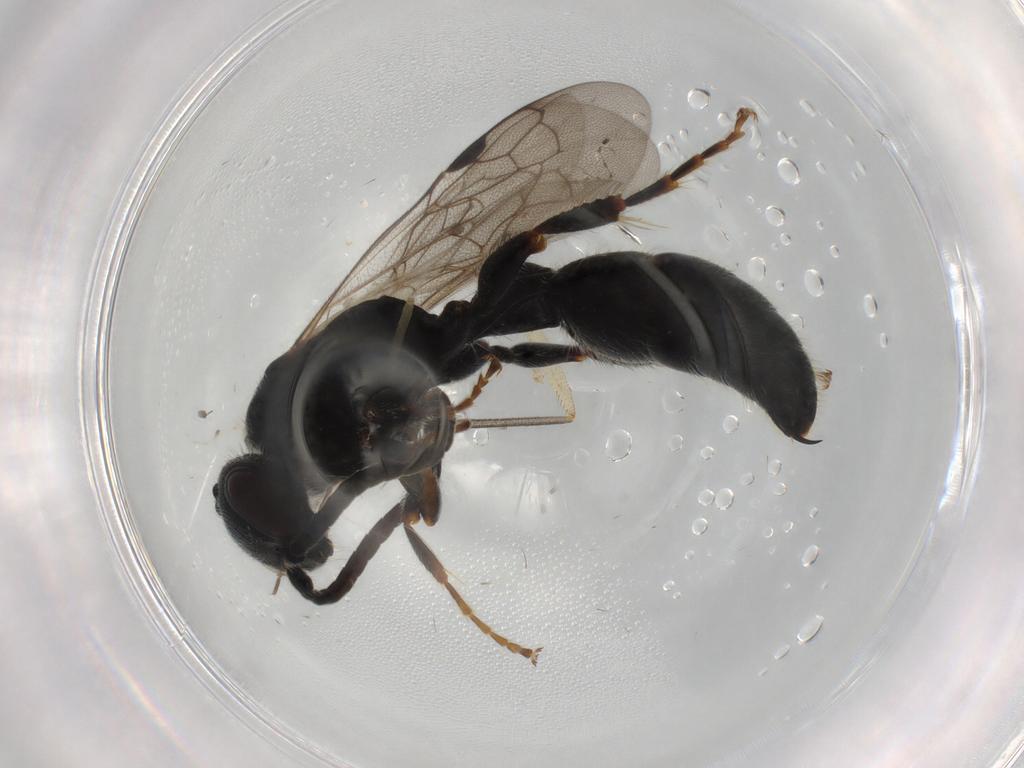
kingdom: Animalia
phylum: Arthropoda
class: Insecta
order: Hymenoptera
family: Tiphiidae
